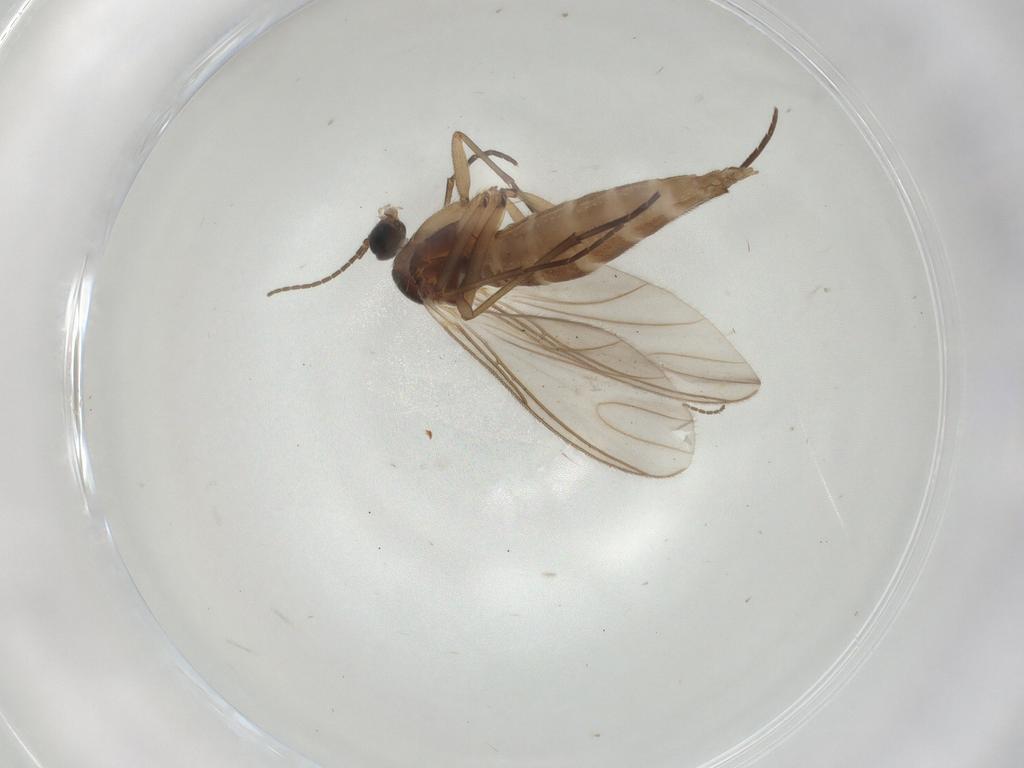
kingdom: Animalia
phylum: Arthropoda
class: Insecta
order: Diptera
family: Sciaridae
